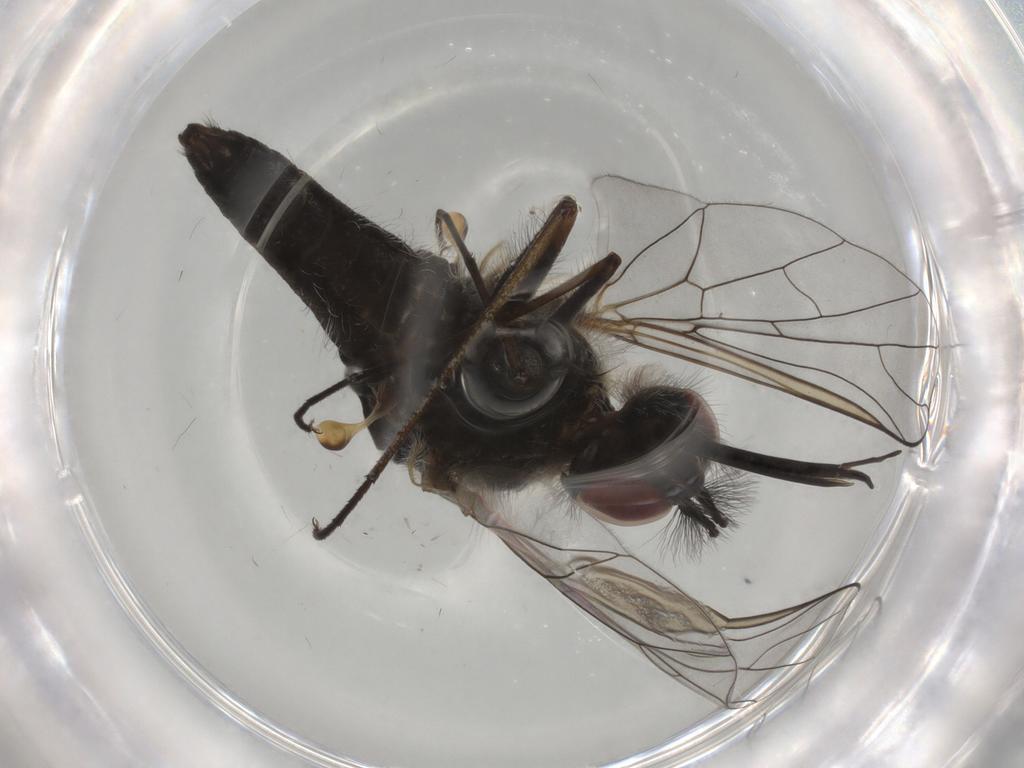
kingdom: Animalia
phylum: Arthropoda
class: Insecta
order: Diptera
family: Bombyliidae
